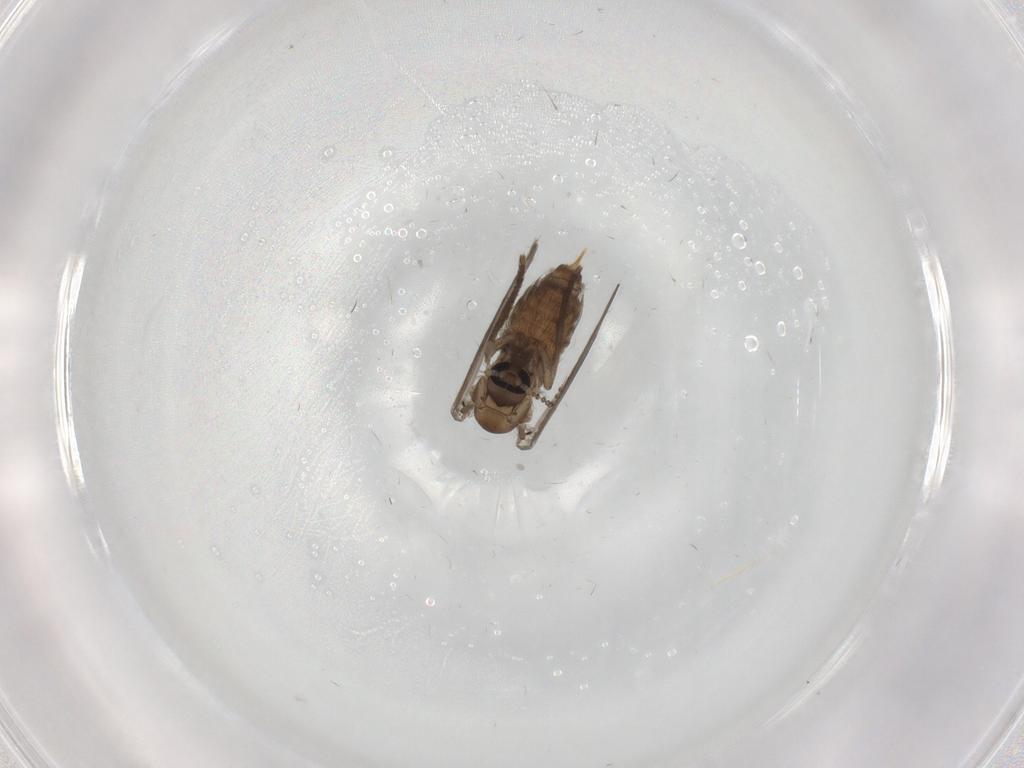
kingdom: Animalia
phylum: Arthropoda
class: Insecta
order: Diptera
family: Psychodidae
